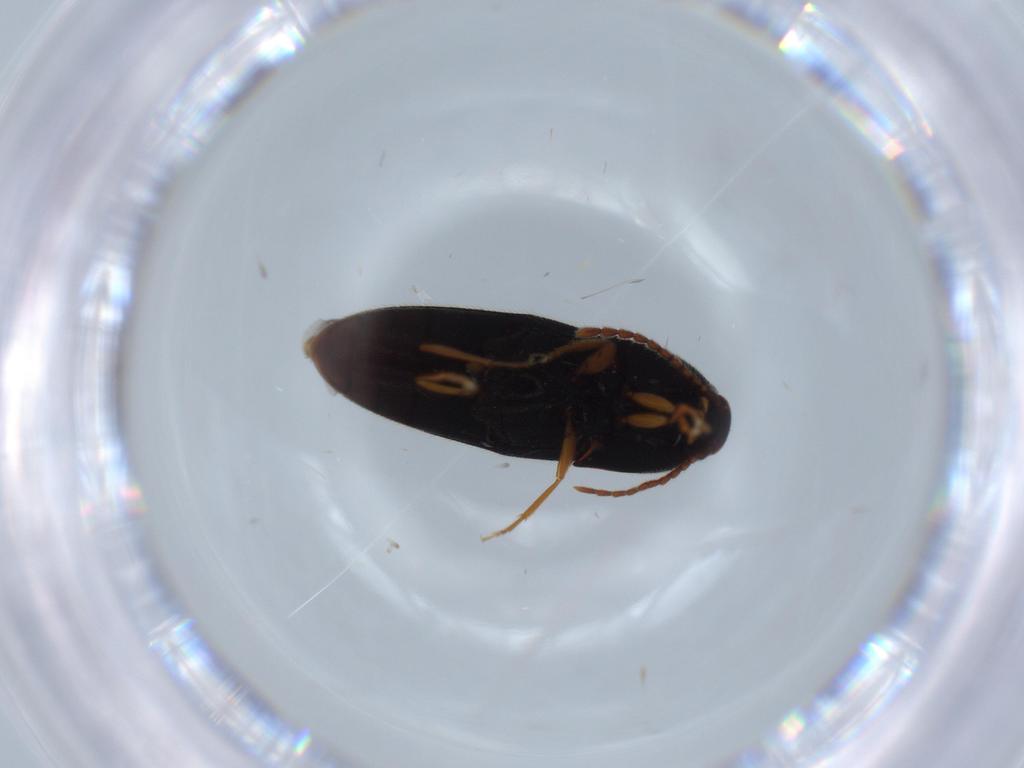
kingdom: Animalia
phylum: Arthropoda
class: Insecta
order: Coleoptera
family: Elateridae
